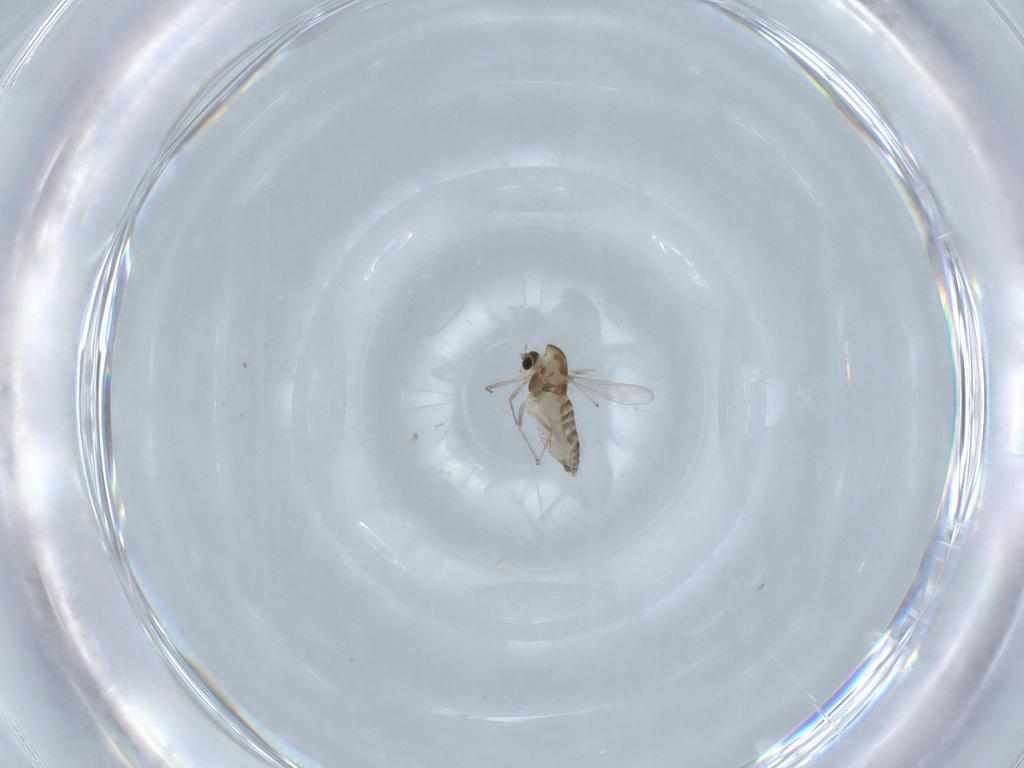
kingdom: Animalia
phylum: Arthropoda
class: Insecta
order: Diptera
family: Chironomidae
